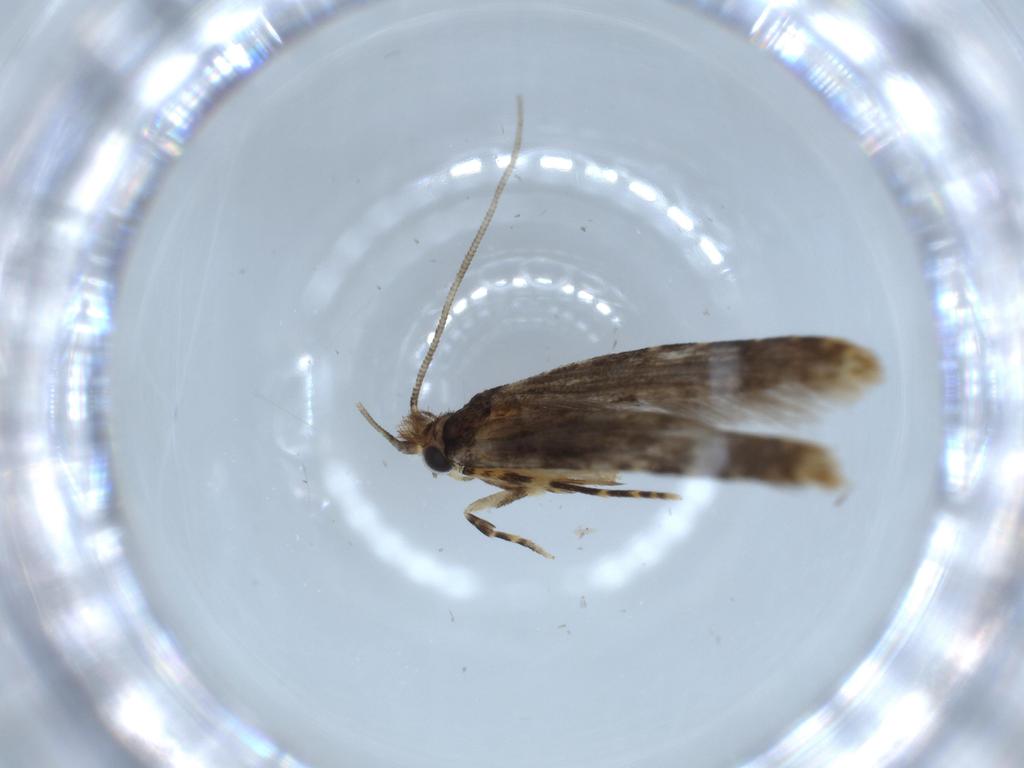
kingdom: Animalia
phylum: Arthropoda
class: Insecta
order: Lepidoptera
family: Tineidae
